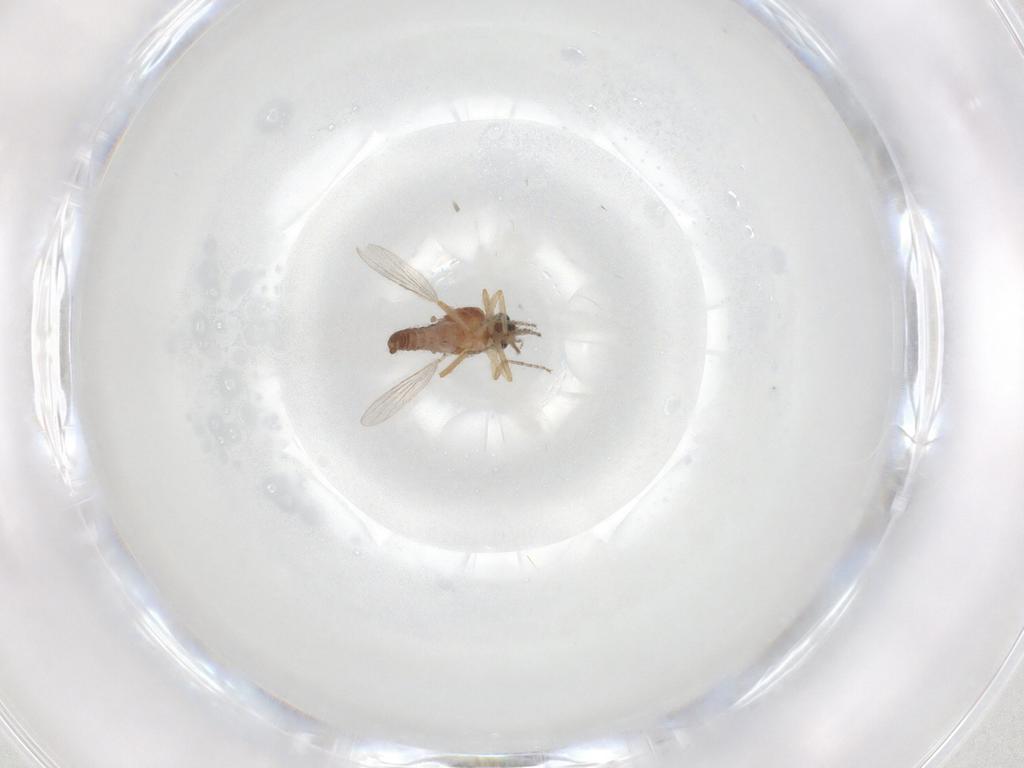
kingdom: Animalia
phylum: Arthropoda
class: Insecta
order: Diptera
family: Ceratopogonidae
